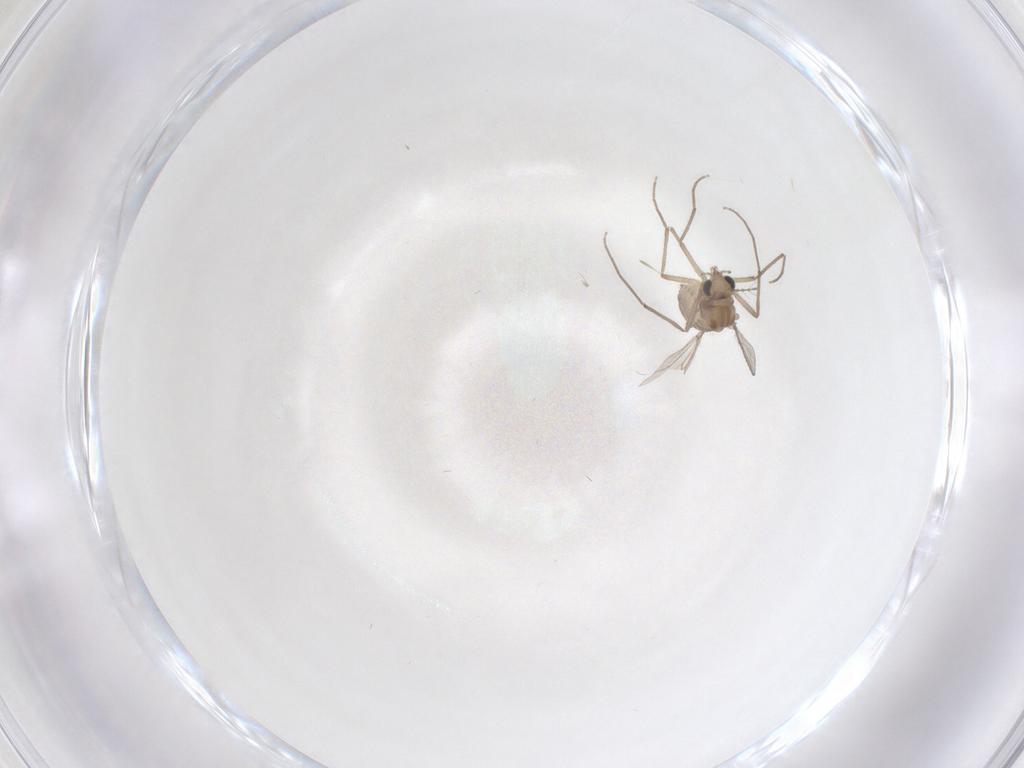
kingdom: Animalia
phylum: Arthropoda
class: Insecta
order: Diptera
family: Chironomidae
